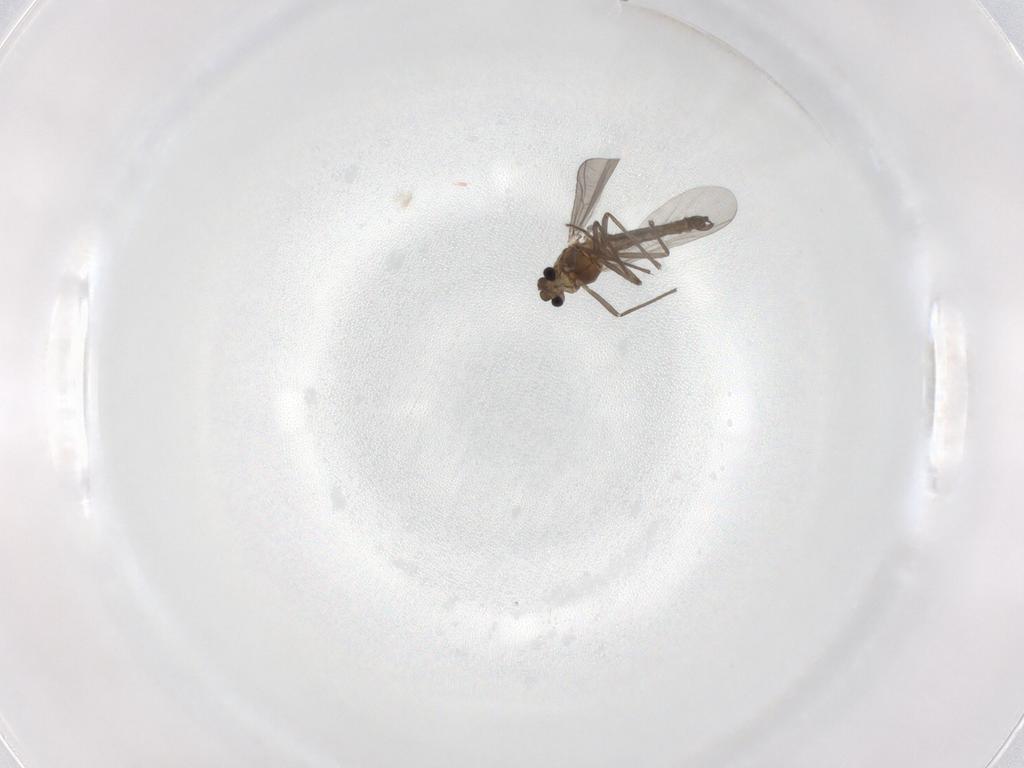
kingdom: Animalia
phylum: Arthropoda
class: Insecta
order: Diptera
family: Chironomidae
